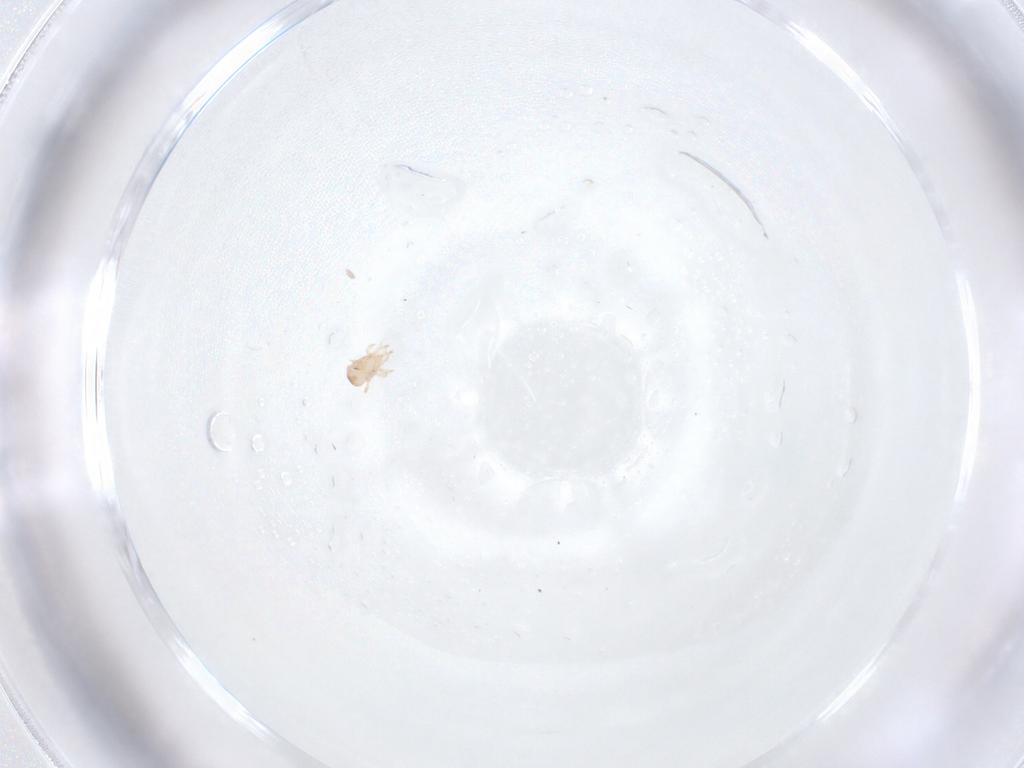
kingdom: Animalia
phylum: Arthropoda
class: Arachnida
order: Mesostigmata
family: Ascidae
